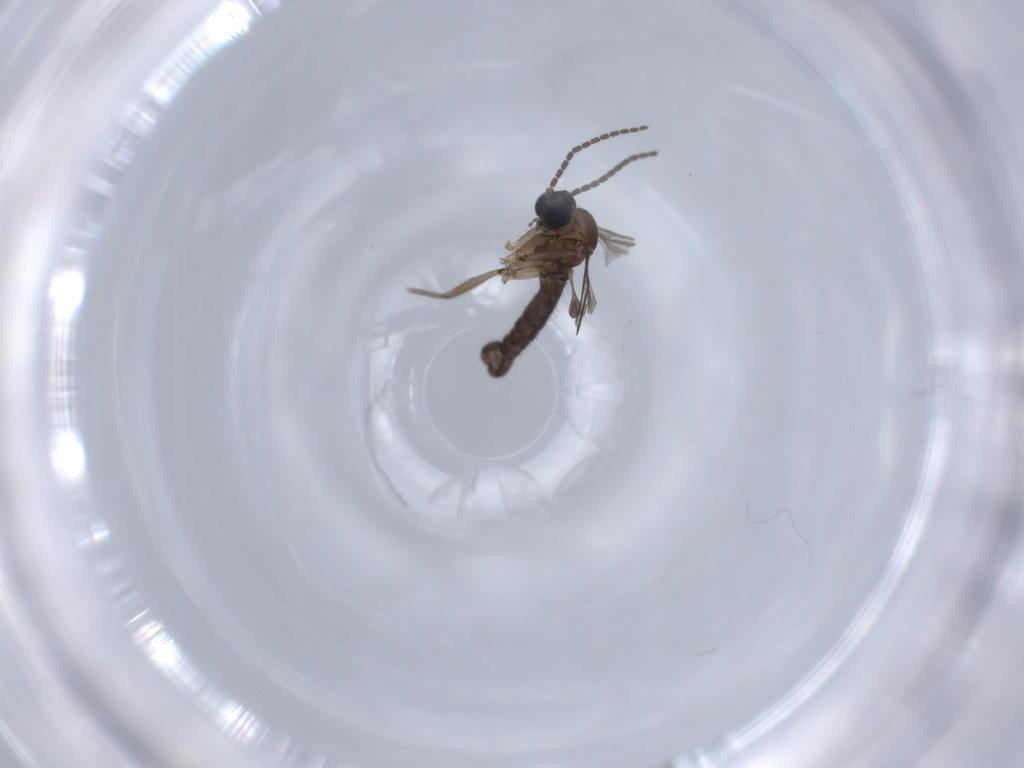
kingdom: Animalia
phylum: Arthropoda
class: Insecta
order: Diptera
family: Sciaridae
